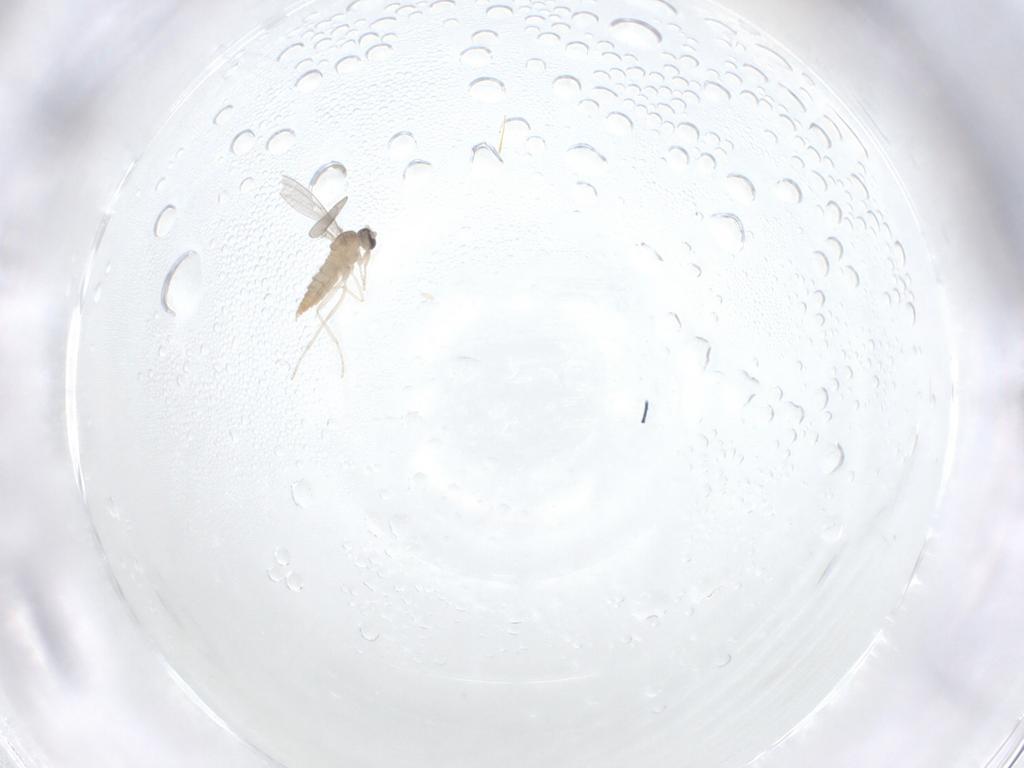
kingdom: Animalia
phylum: Arthropoda
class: Insecta
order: Diptera
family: Cecidomyiidae
